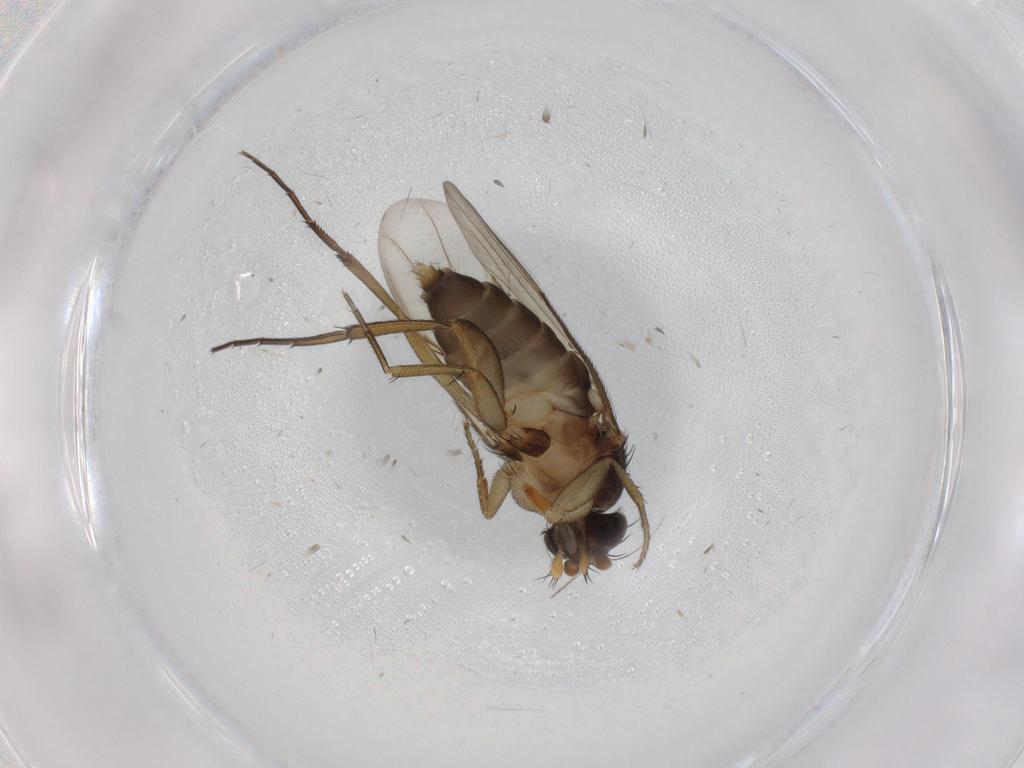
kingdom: Animalia
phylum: Arthropoda
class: Insecta
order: Diptera
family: Phoridae
